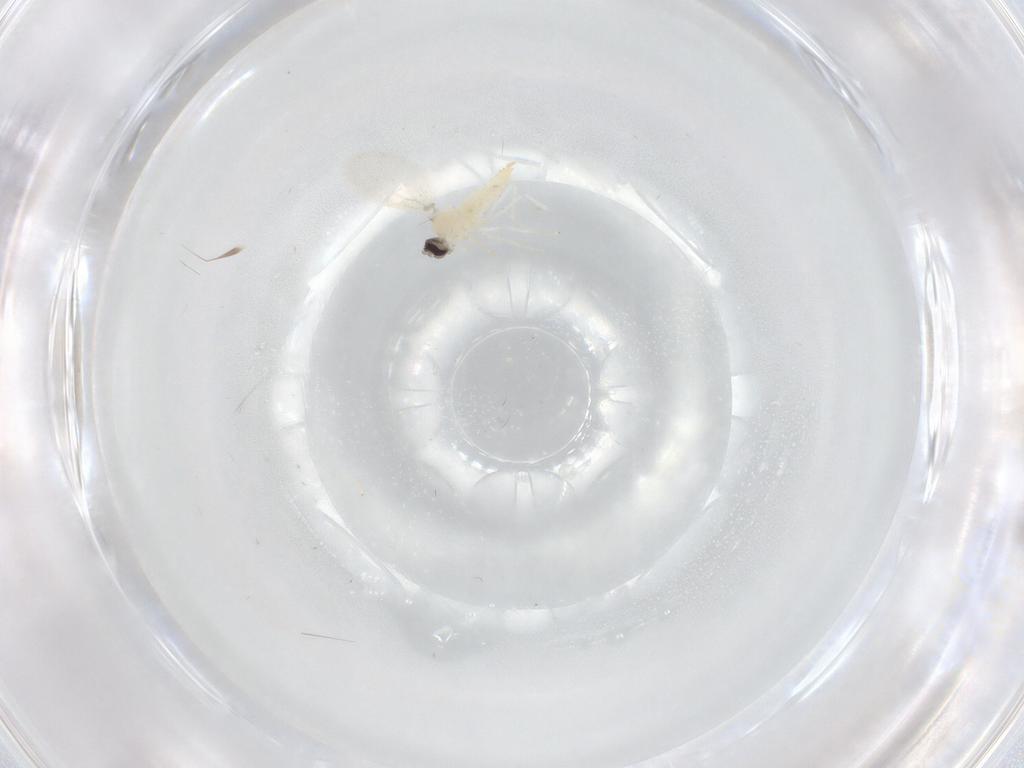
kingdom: Animalia
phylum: Arthropoda
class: Insecta
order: Diptera
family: Cecidomyiidae
